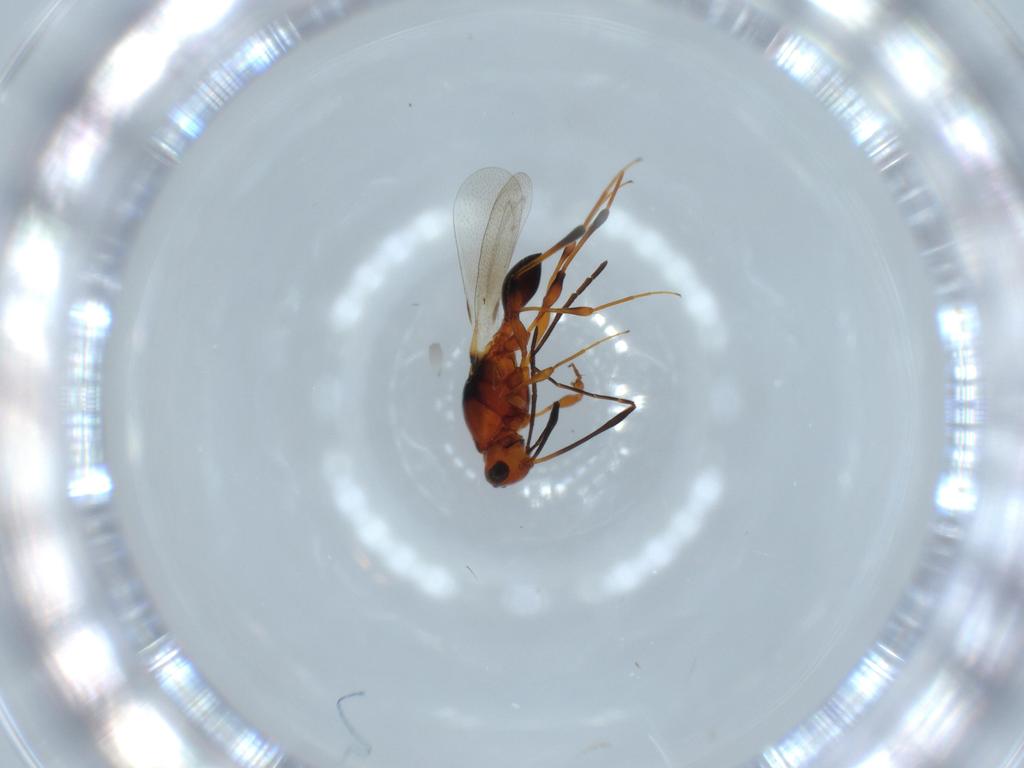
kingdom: Animalia
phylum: Arthropoda
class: Insecta
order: Hymenoptera
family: Platygastridae
